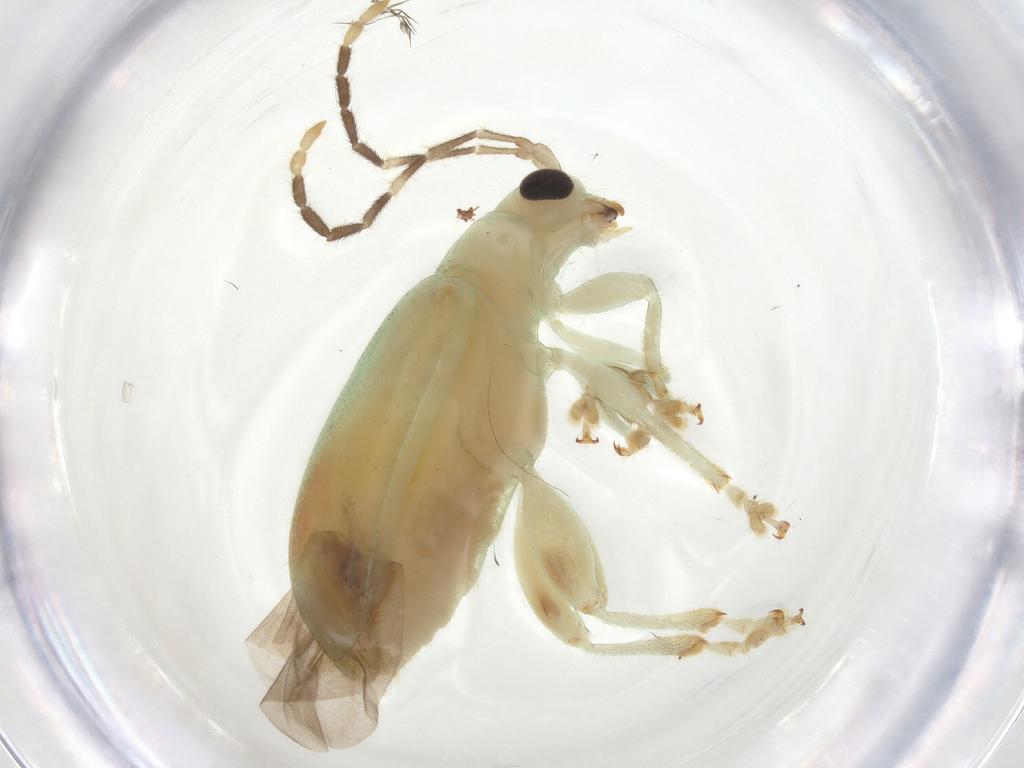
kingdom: Animalia
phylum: Arthropoda
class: Insecta
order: Coleoptera
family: Chrysomelidae
